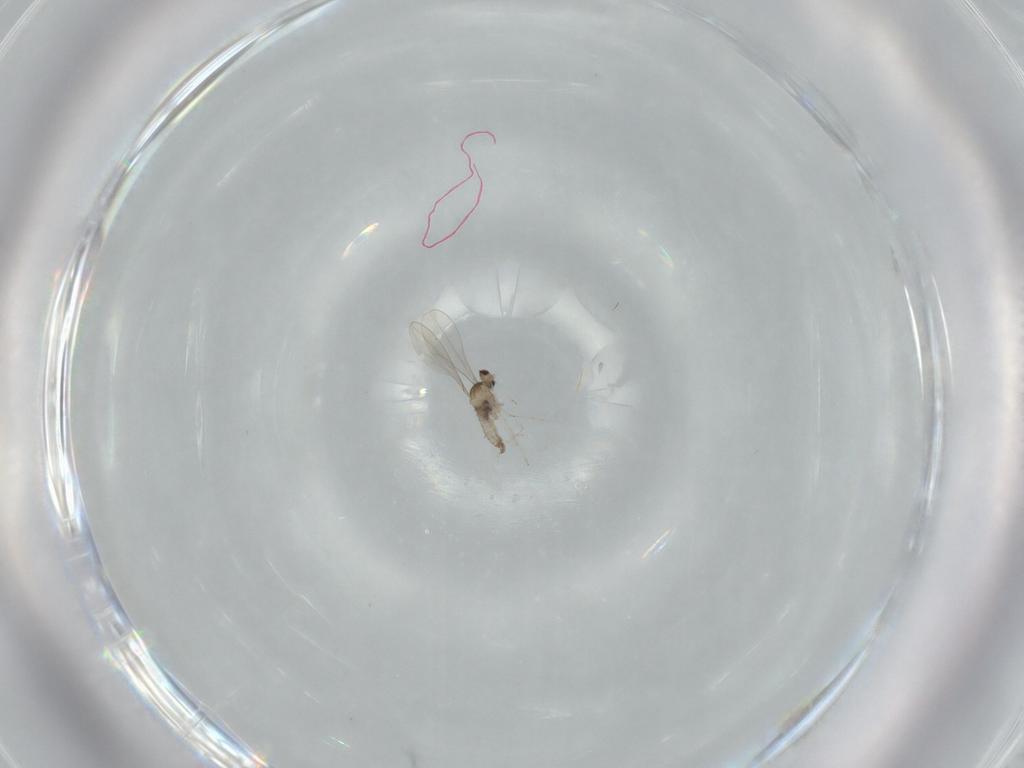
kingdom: Animalia
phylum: Arthropoda
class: Insecta
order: Diptera
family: Cecidomyiidae
